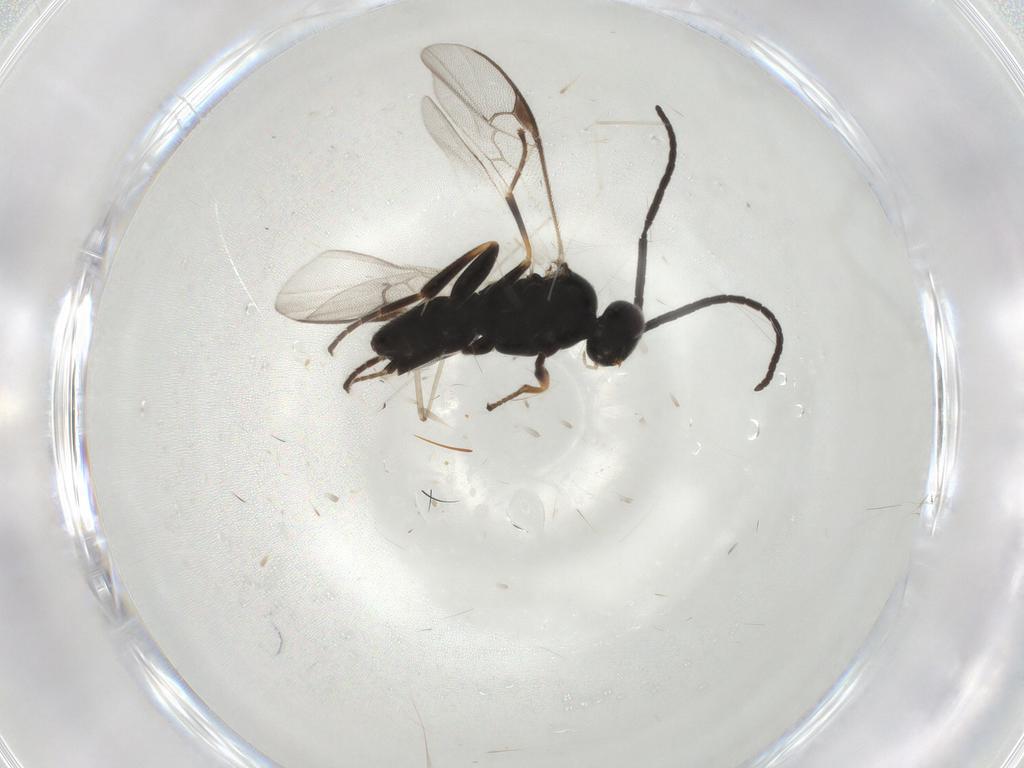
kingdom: Animalia
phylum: Arthropoda
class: Insecta
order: Hymenoptera
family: Braconidae
